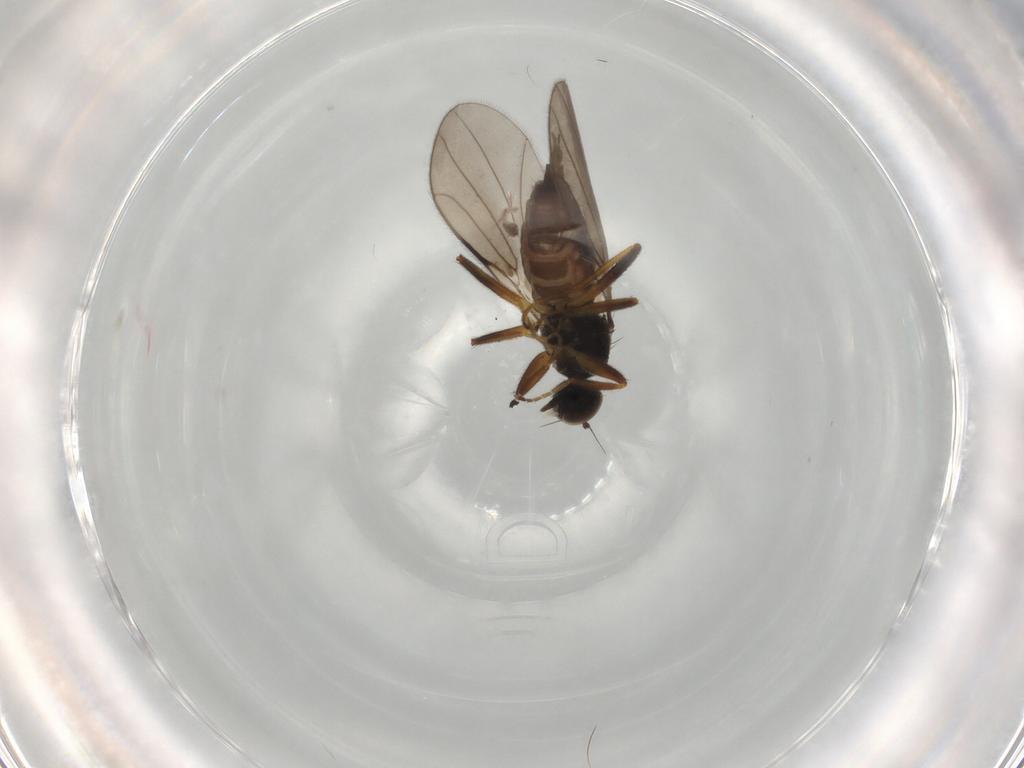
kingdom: Animalia
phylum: Arthropoda
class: Insecta
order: Diptera
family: Hybotidae
